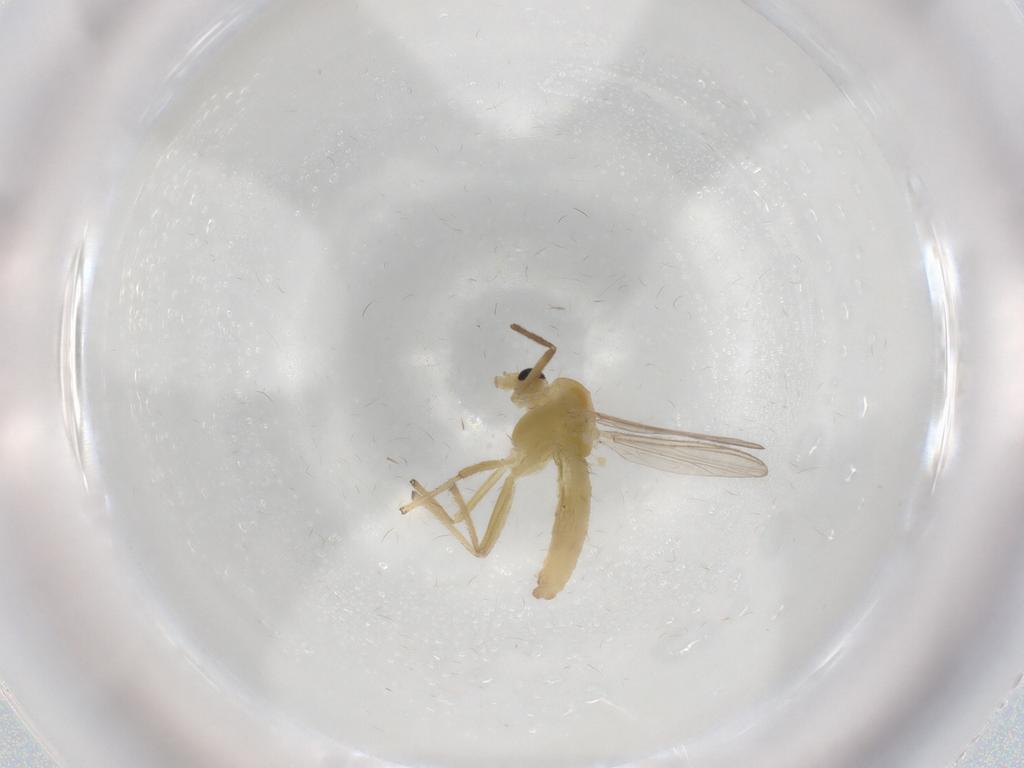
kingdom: Animalia
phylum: Arthropoda
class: Insecta
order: Diptera
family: Chironomidae
